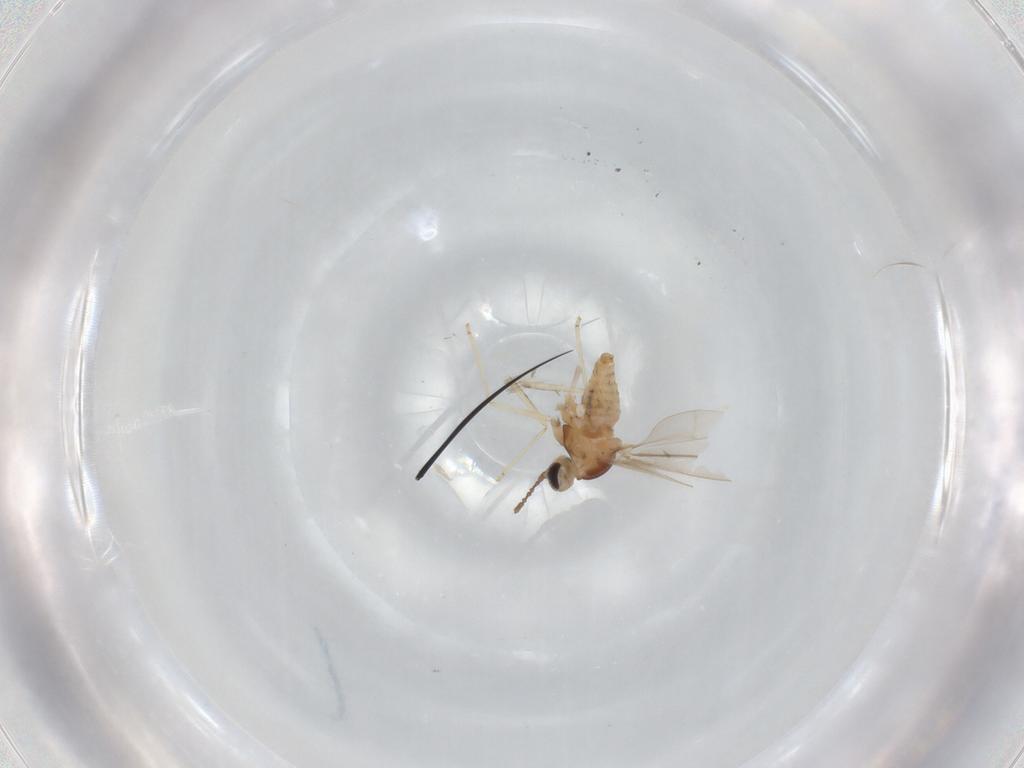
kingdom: Animalia
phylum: Arthropoda
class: Insecta
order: Diptera
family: Cecidomyiidae
